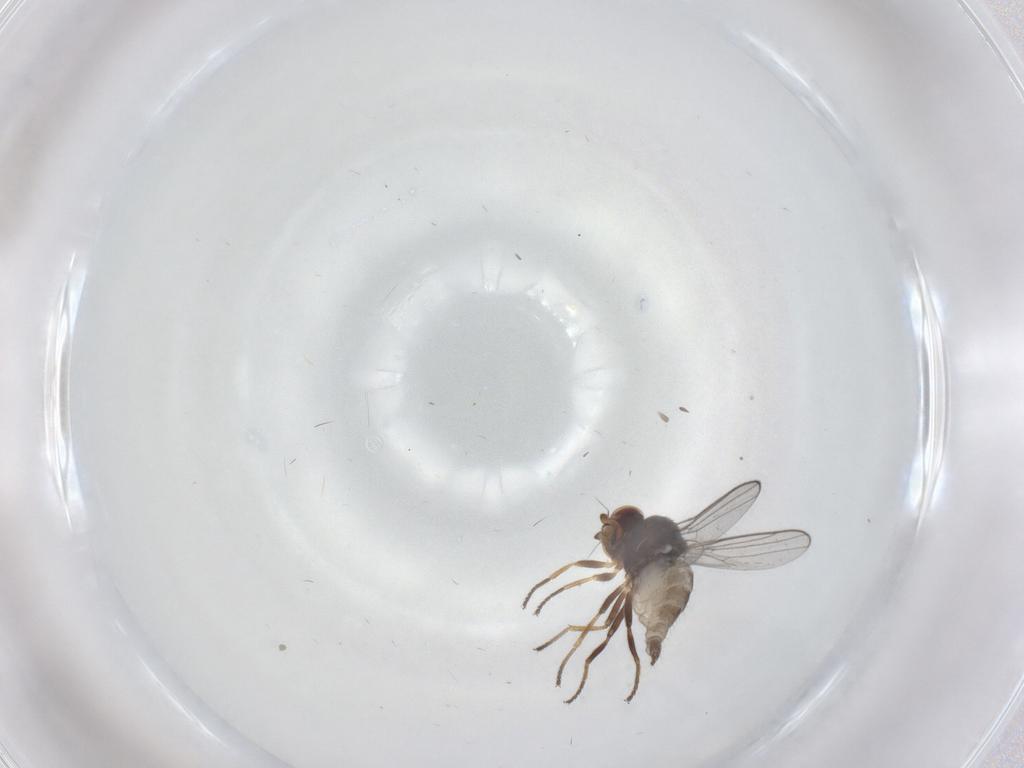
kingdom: Animalia
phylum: Arthropoda
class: Insecta
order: Diptera
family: Chloropidae
